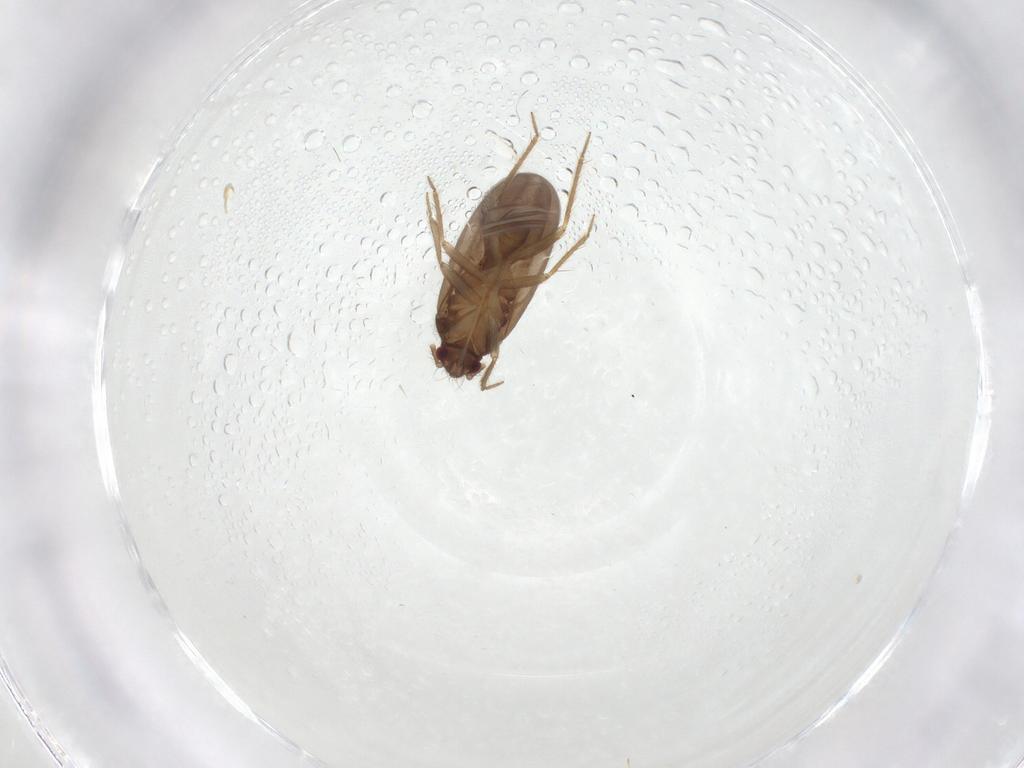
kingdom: Animalia
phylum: Arthropoda
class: Insecta
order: Hemiptera
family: Ceratocombidae
